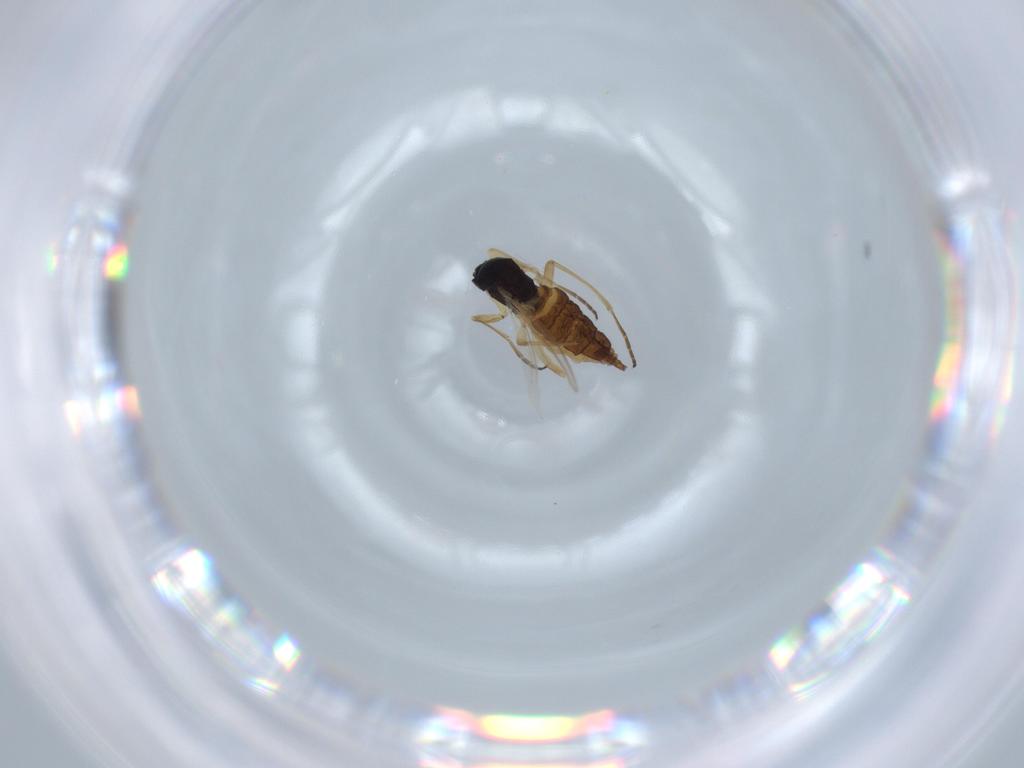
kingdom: Animalia
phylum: Arthropoda
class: Insecta
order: Diptera
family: Sciaridae
